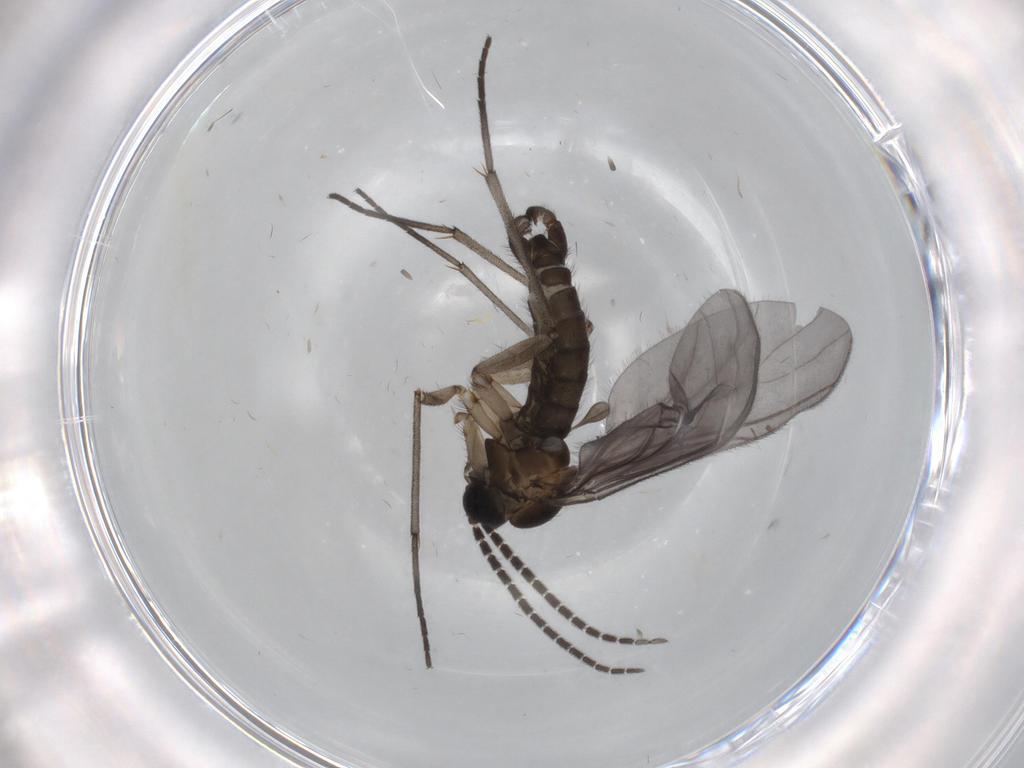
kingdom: Animalia
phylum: Arthropoda
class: Insecta
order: Diptera
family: Sciaridae
